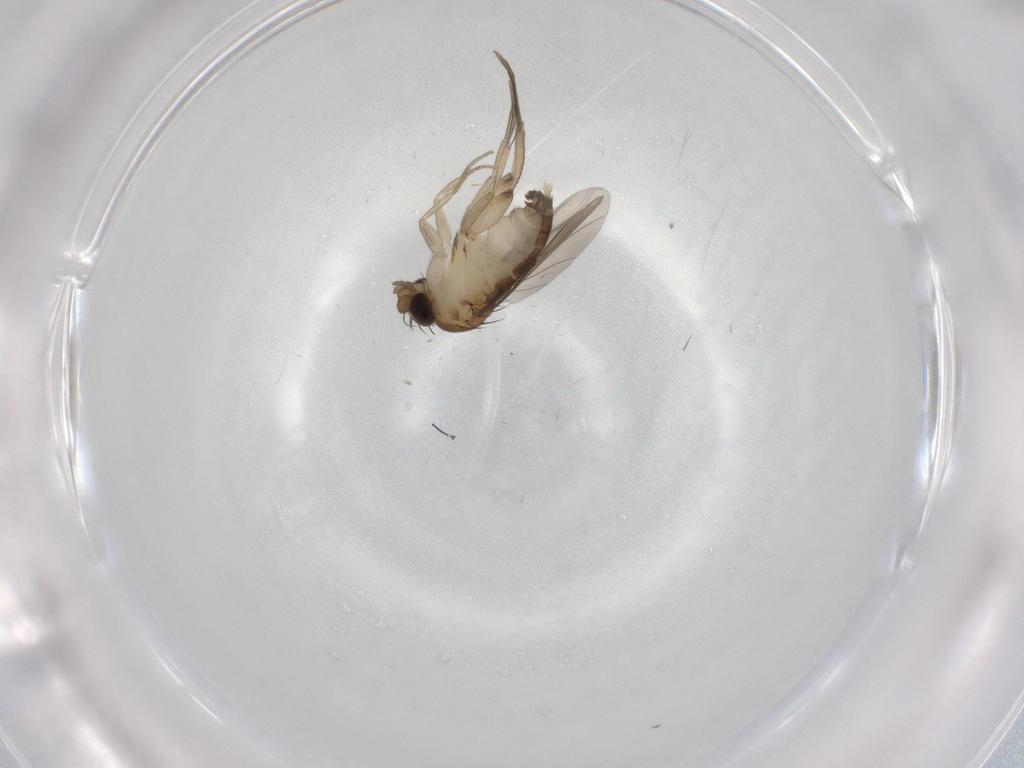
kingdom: Animalia
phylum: Arthropoda
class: Insecta
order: Diptera
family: Phoridae
